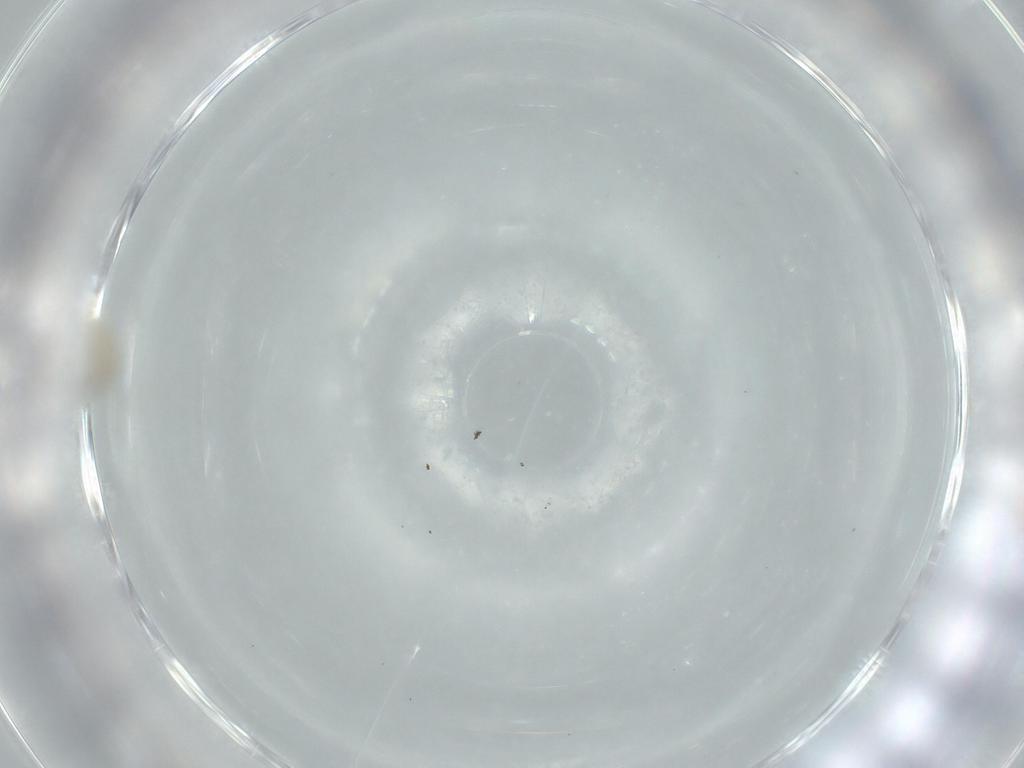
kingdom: Animalia
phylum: Arthropoda
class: Insecta
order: Diptera
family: Cecidomyiidae
